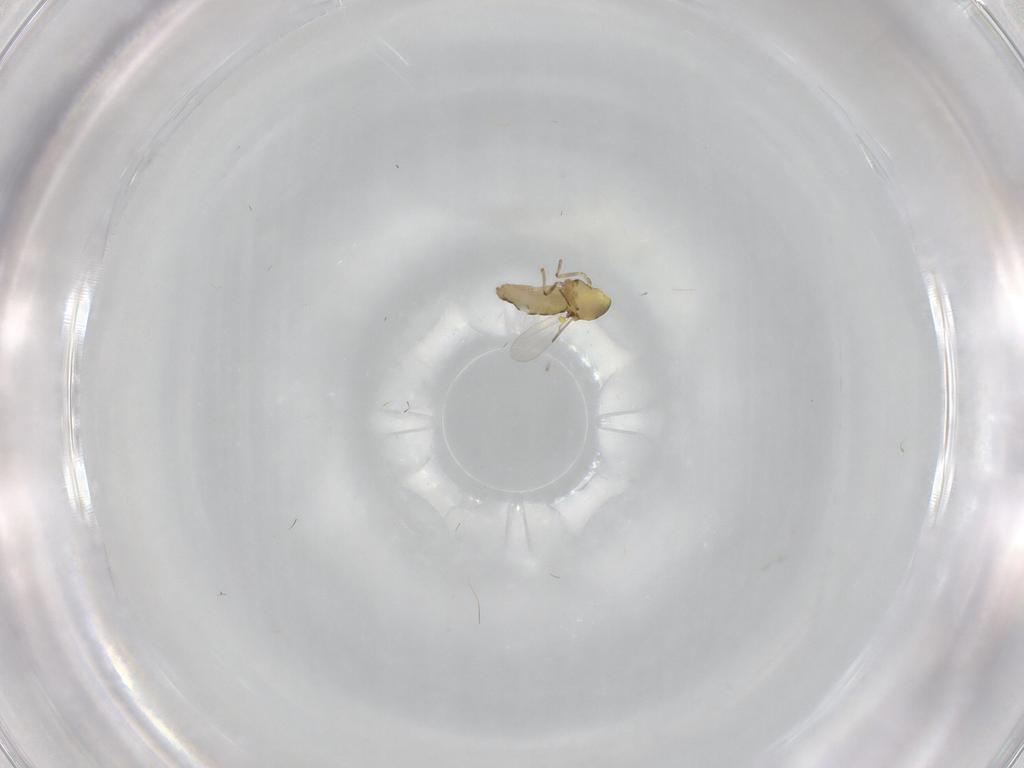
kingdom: Animalia
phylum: Arthropoda
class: Insecta
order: Diptera
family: Ceratopogonidae
